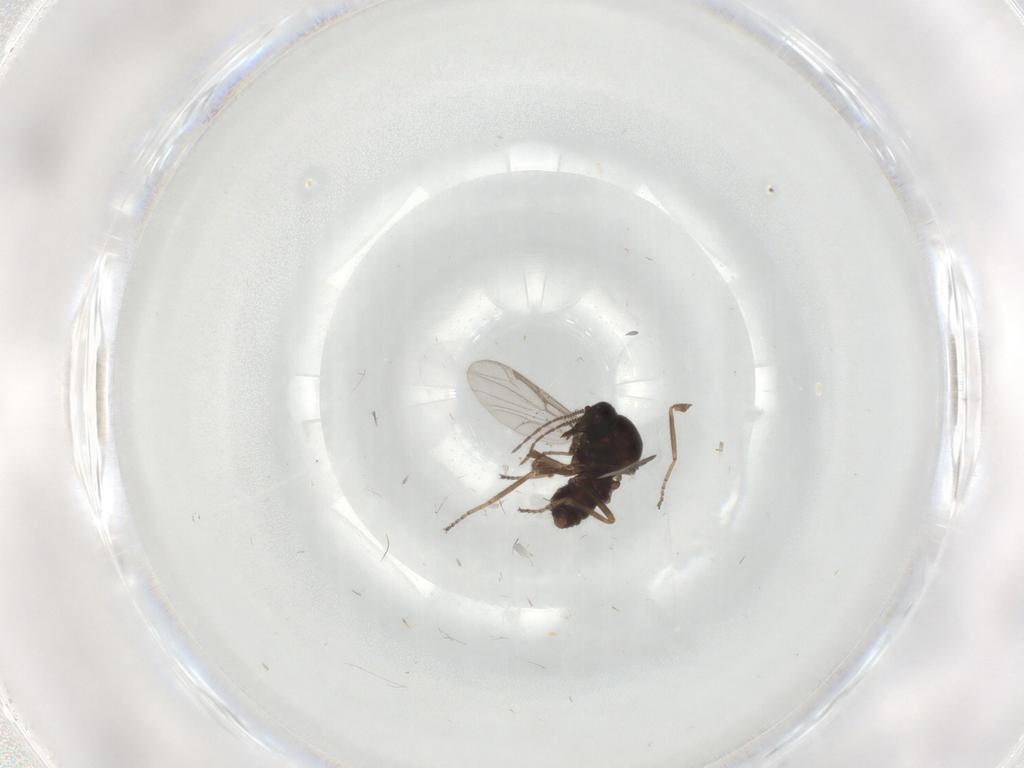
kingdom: Animalia
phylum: Arthropoda
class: Insecta
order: Diptera
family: Ceratopogonidae
